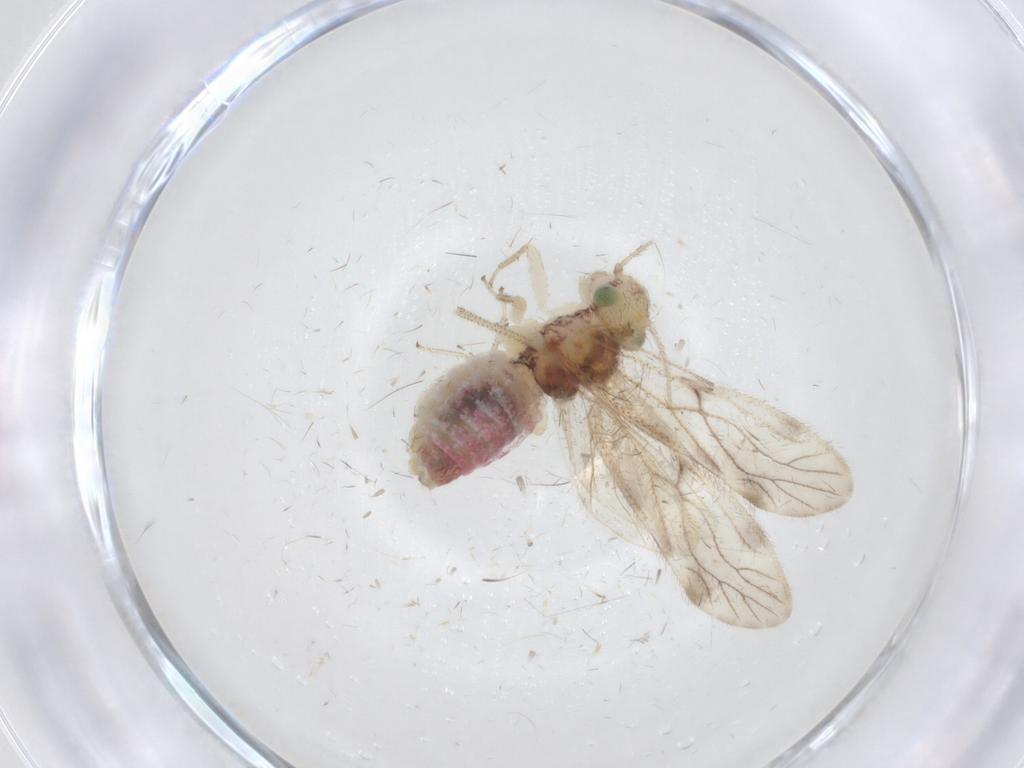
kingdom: Animalia
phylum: Arthropoda
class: Insecta
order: Psocodea
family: Pseudocaeciliidae
